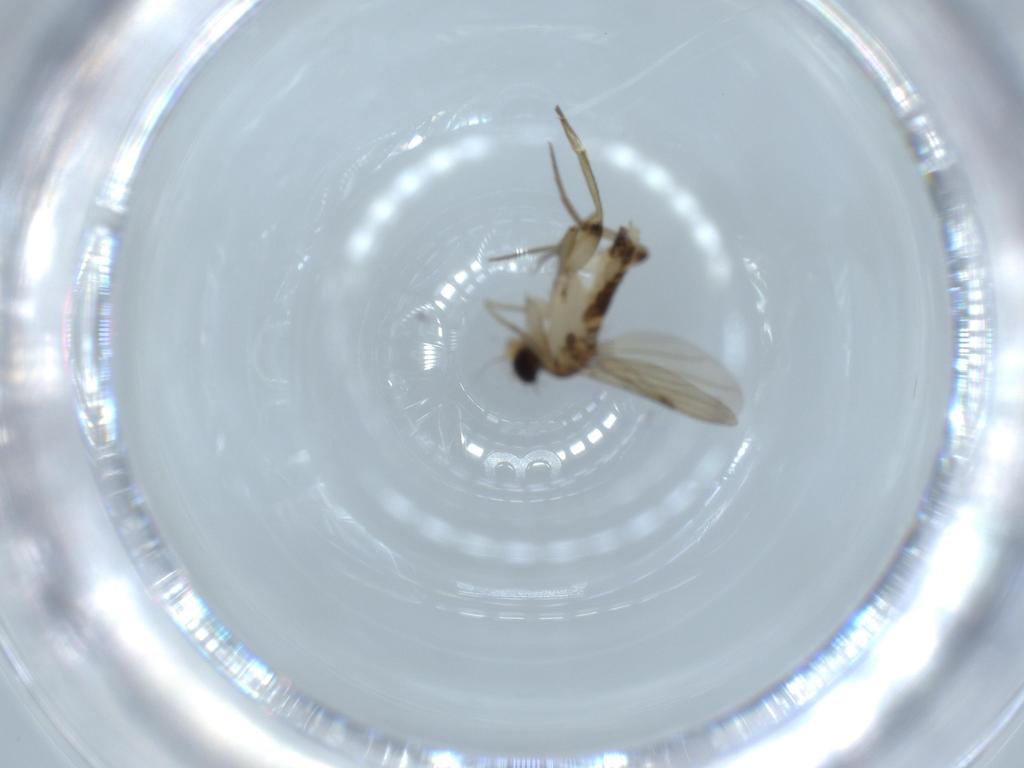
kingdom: Animalia
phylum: Arthropoda
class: Insecta
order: Diptera
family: Phoridae
